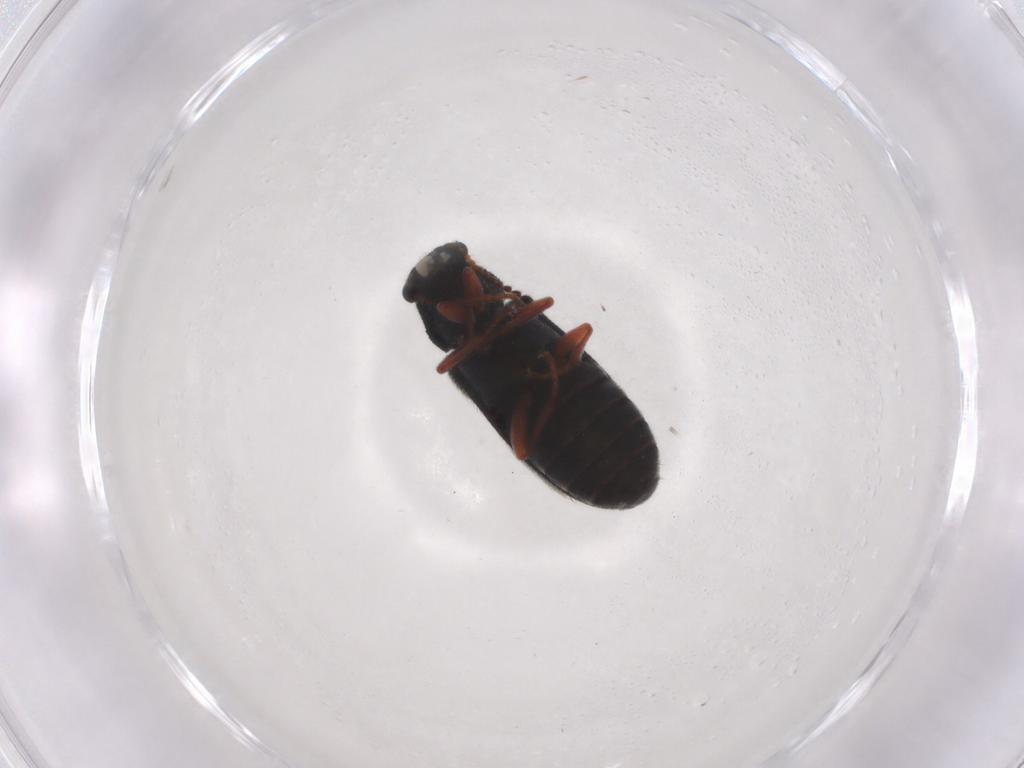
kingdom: Animalia
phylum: Arthropoda
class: Insecta
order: Coleoptera
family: Melyridae
